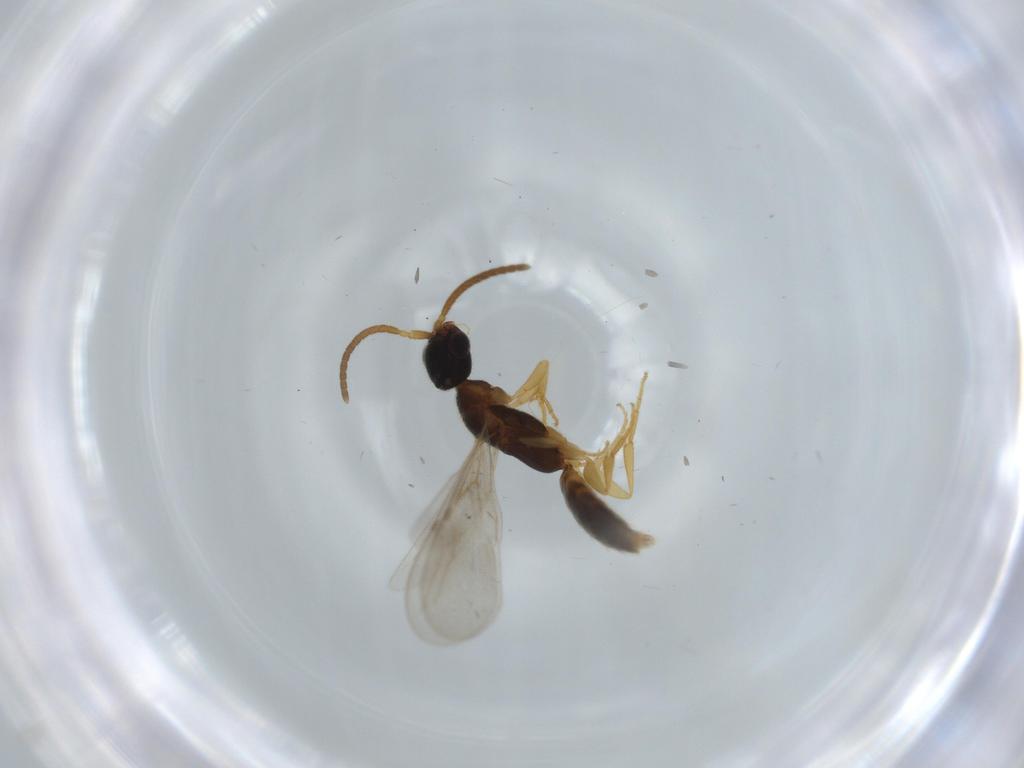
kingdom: Animalia
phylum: Arthropoda
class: Insecta
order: Hymenoptera
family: Bethylidae
